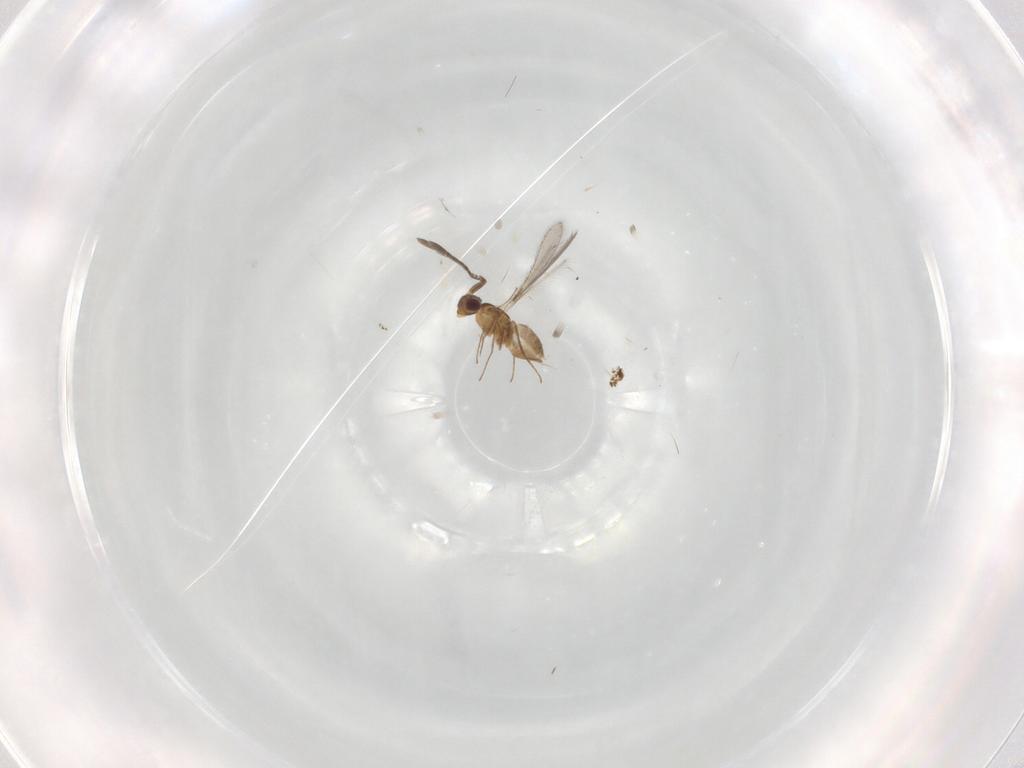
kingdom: Animalia
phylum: Arthropoda
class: Insecta
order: Hymenoptera
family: Mymaridae
